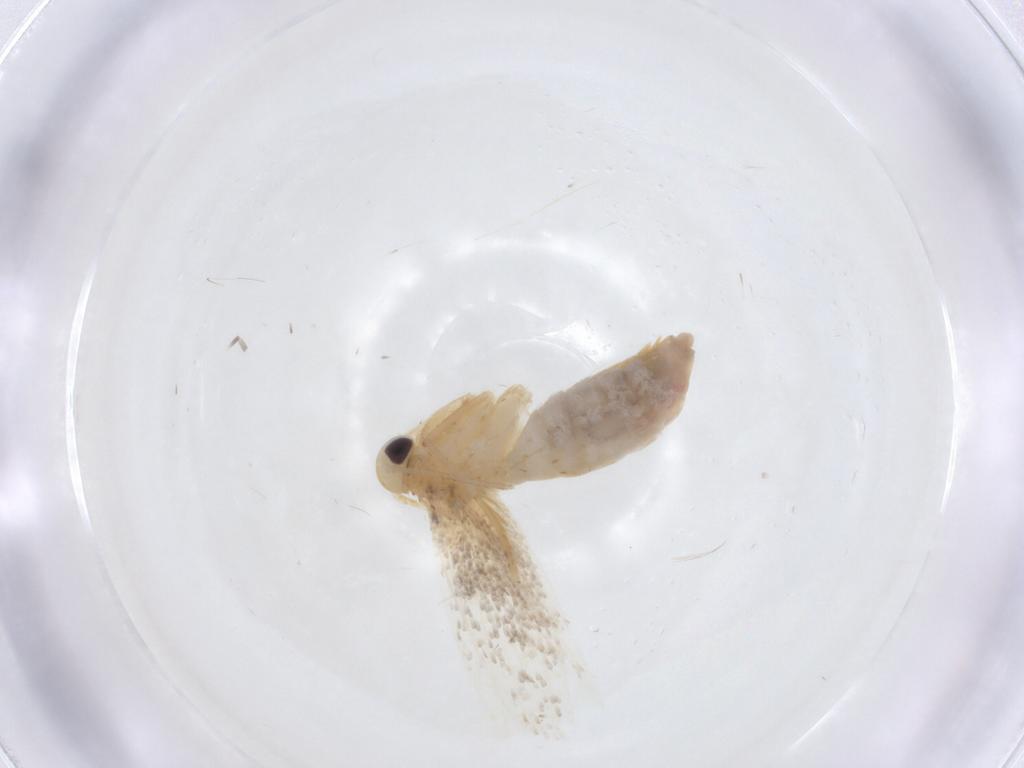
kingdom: Animalia
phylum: Arthropoda
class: Insecta
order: Lepidoptera
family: Erebidae
